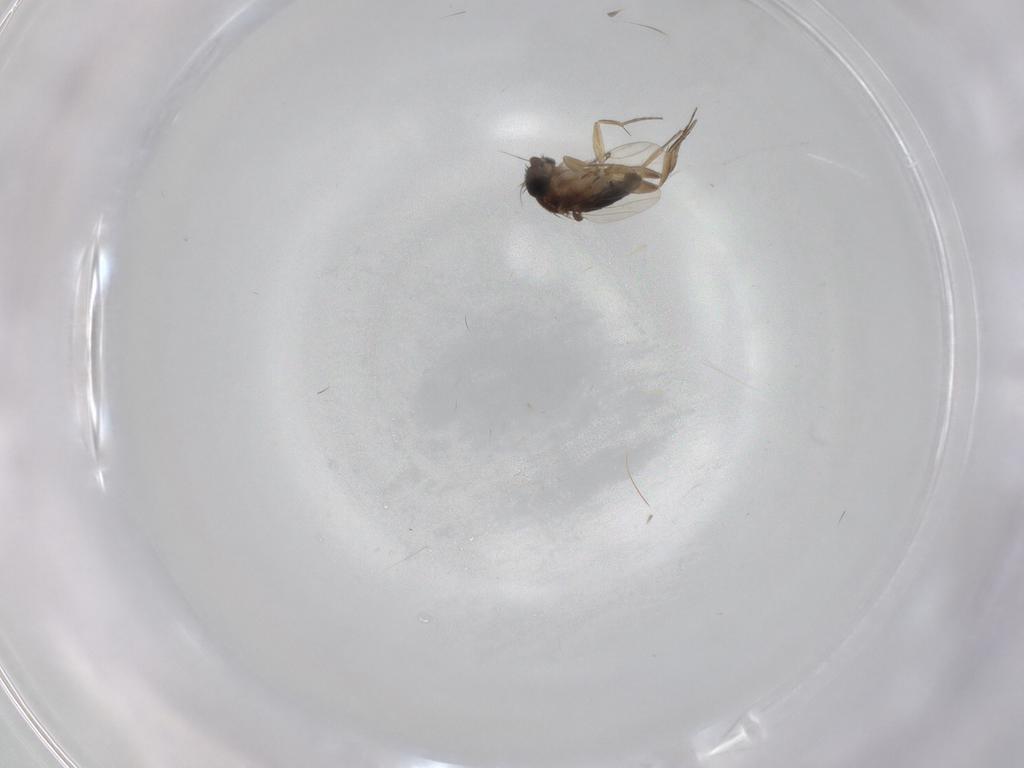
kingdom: Animalia
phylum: Arthropoda
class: Insecta
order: Diptera
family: Phoridae
